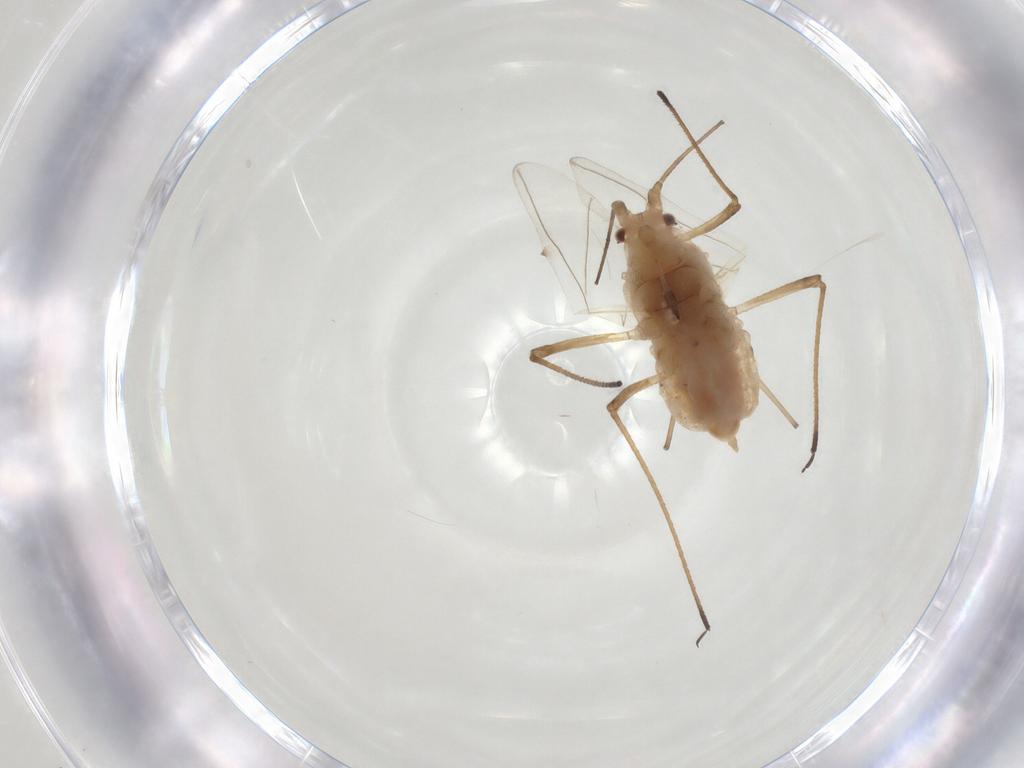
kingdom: Animalia
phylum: Arthropoda
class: Insecta
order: Hemiptera
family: Aphididae
